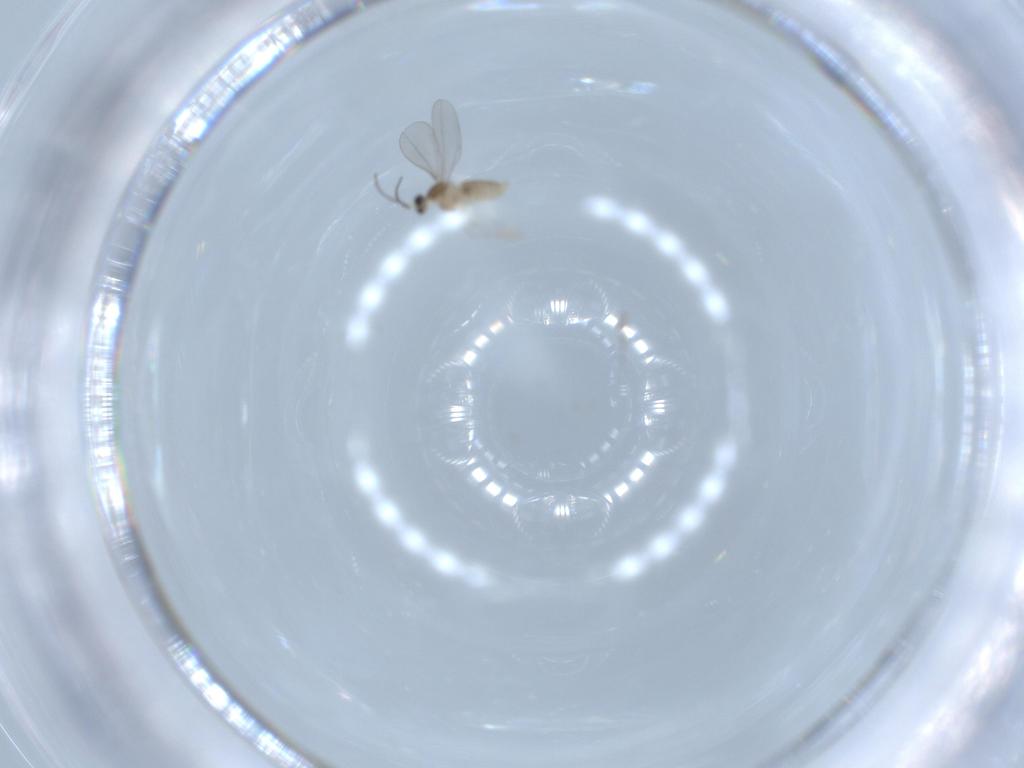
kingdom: Animalia
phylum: Arthropoda
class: Insecta
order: Diptera
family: Cecidomyiidae
